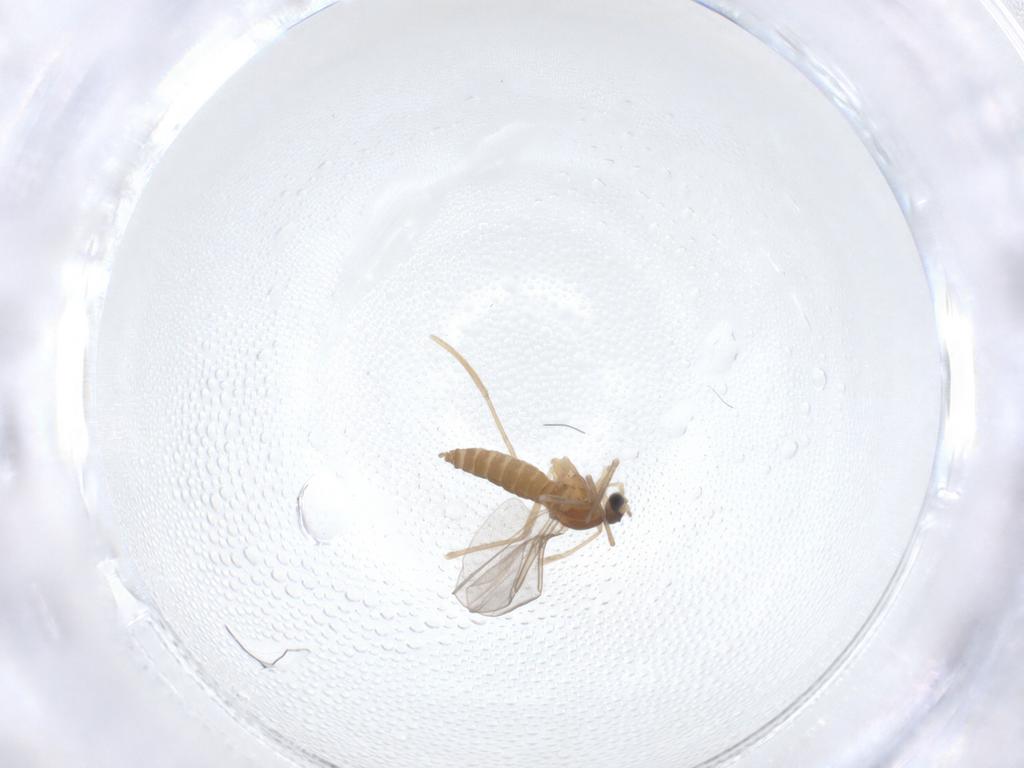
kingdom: Animalia
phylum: Arthropoda
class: Insecta
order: Diptera
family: Cecidomyiidae
